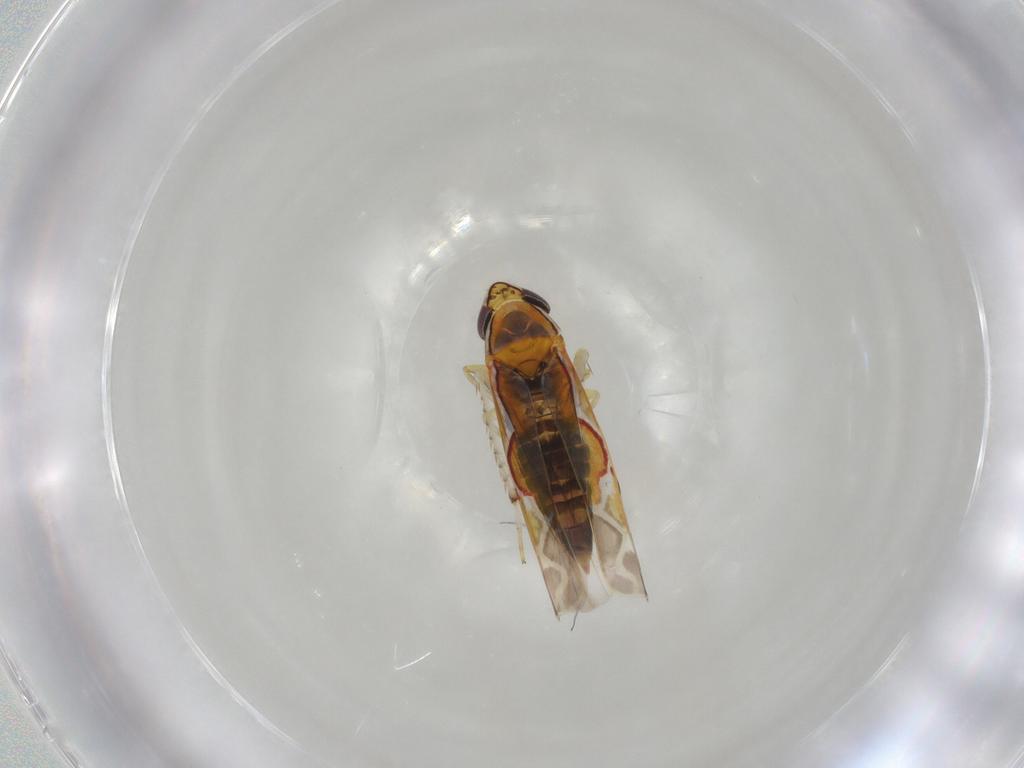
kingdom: Animalia
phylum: Arthropoda
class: Insecta
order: Hemiptera
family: Cicadellidae
